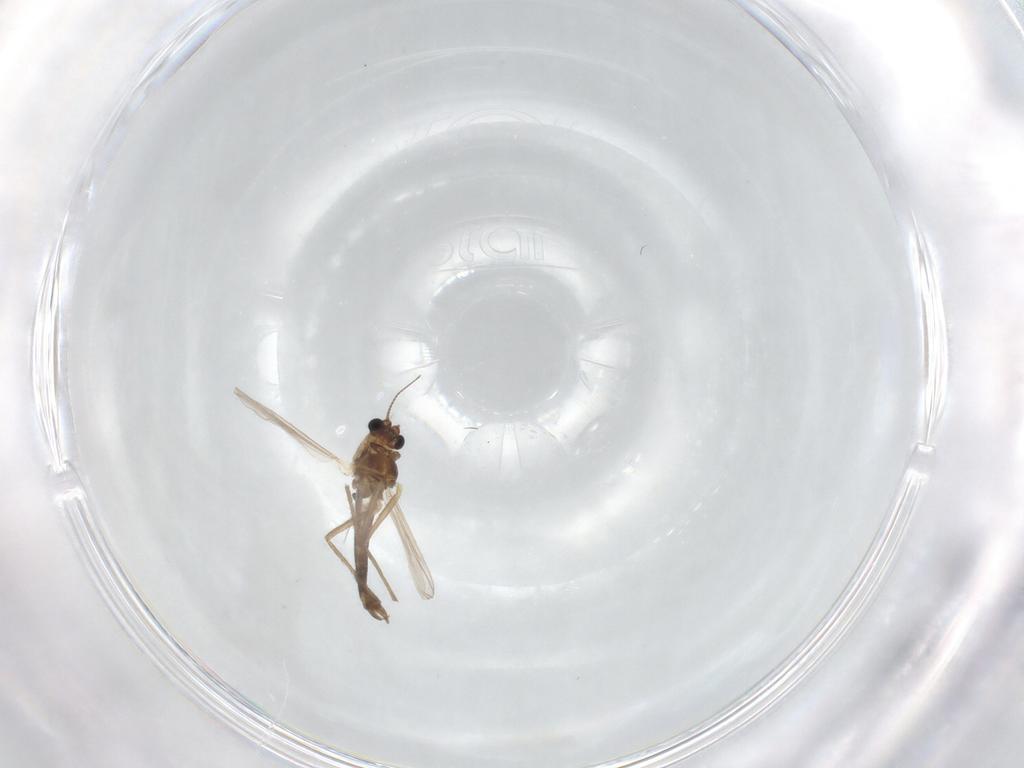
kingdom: Animalia
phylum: Arthropoda
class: Insecta
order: Diptera
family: Chironomidae
